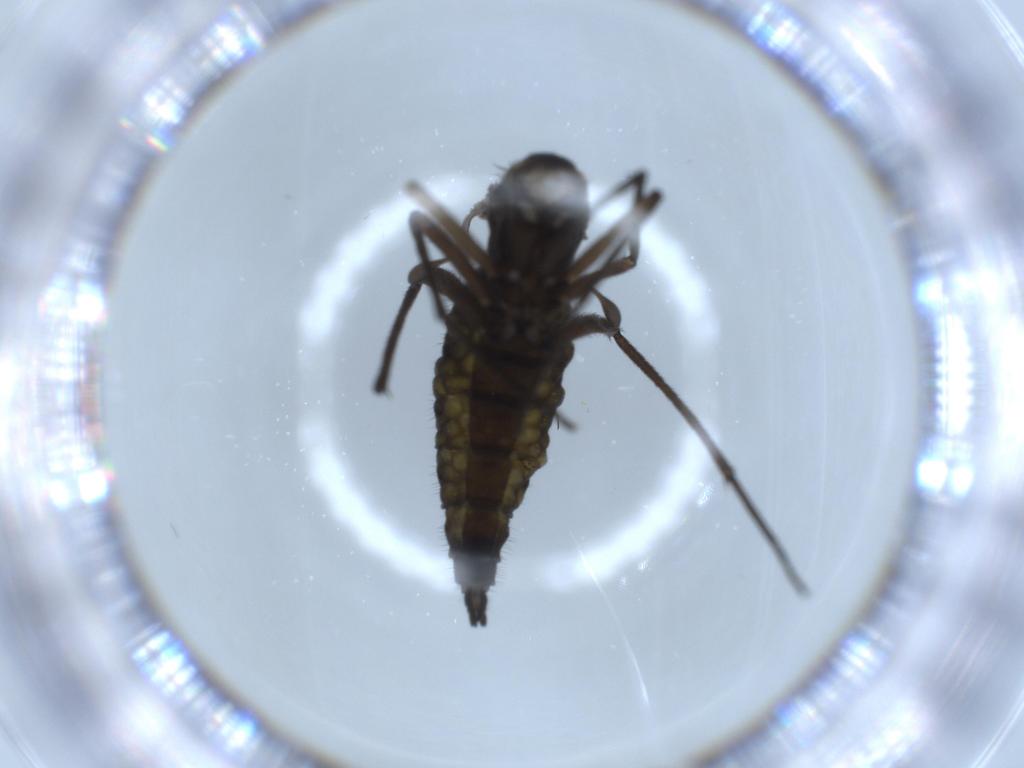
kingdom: Animalia
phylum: Arthropoda
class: Insecta
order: Diptera
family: Sciaridae
